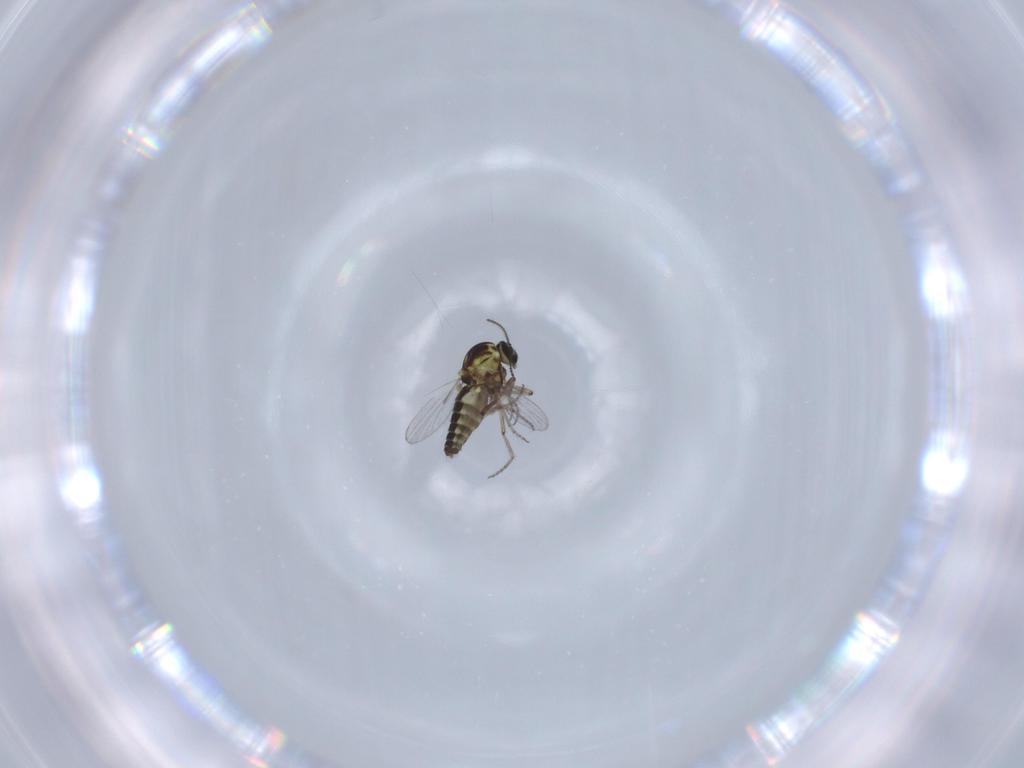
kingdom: Animalia
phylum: Arthropoda
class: Insecta
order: Diptera
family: Ceratopogonidae
